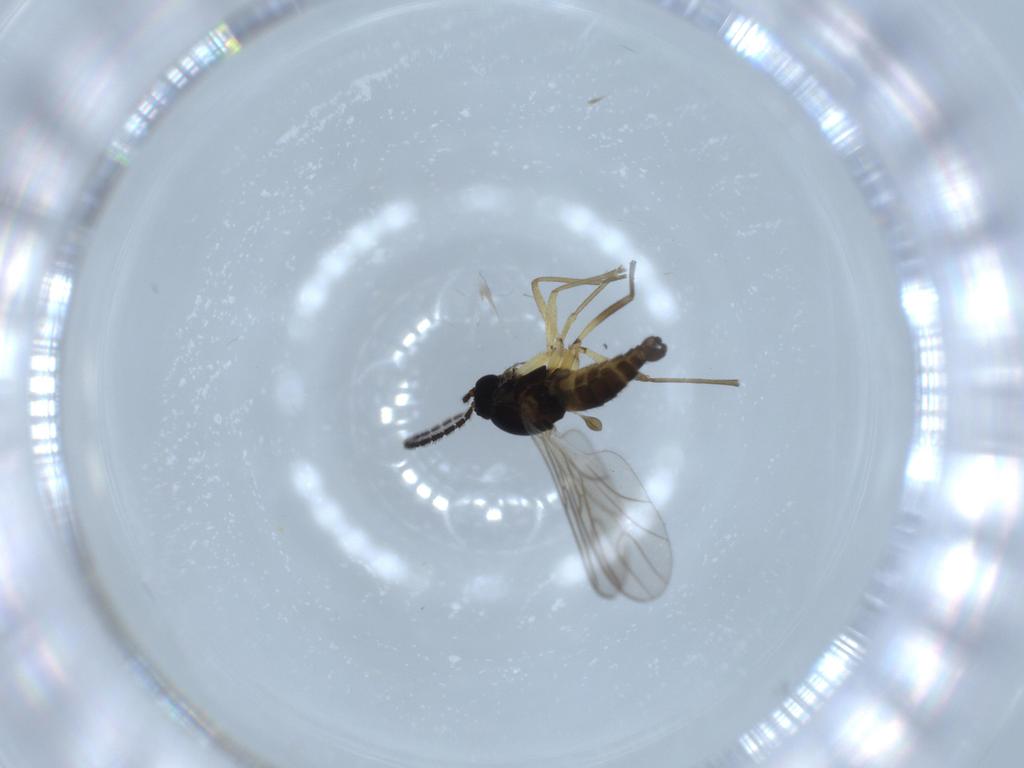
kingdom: Animalia
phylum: Arthropoda
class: Insecta
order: Diptera
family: Sciaridae
